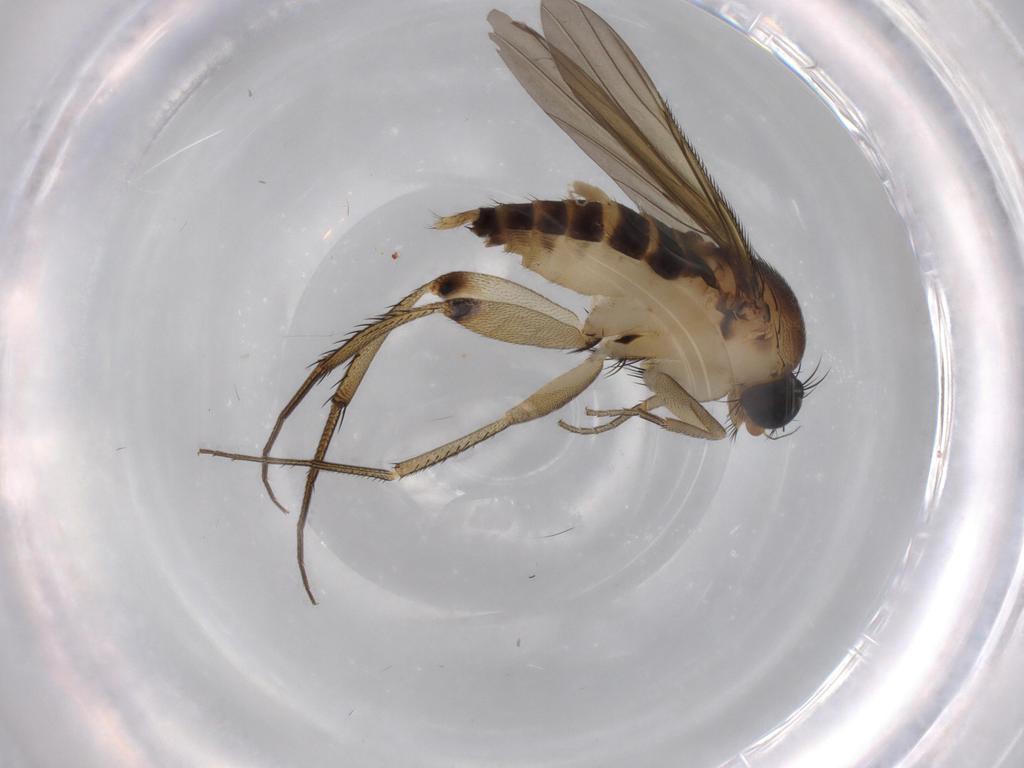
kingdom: Animalia
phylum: Arthropoda
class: Insecta
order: Diptera
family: Phoridae
